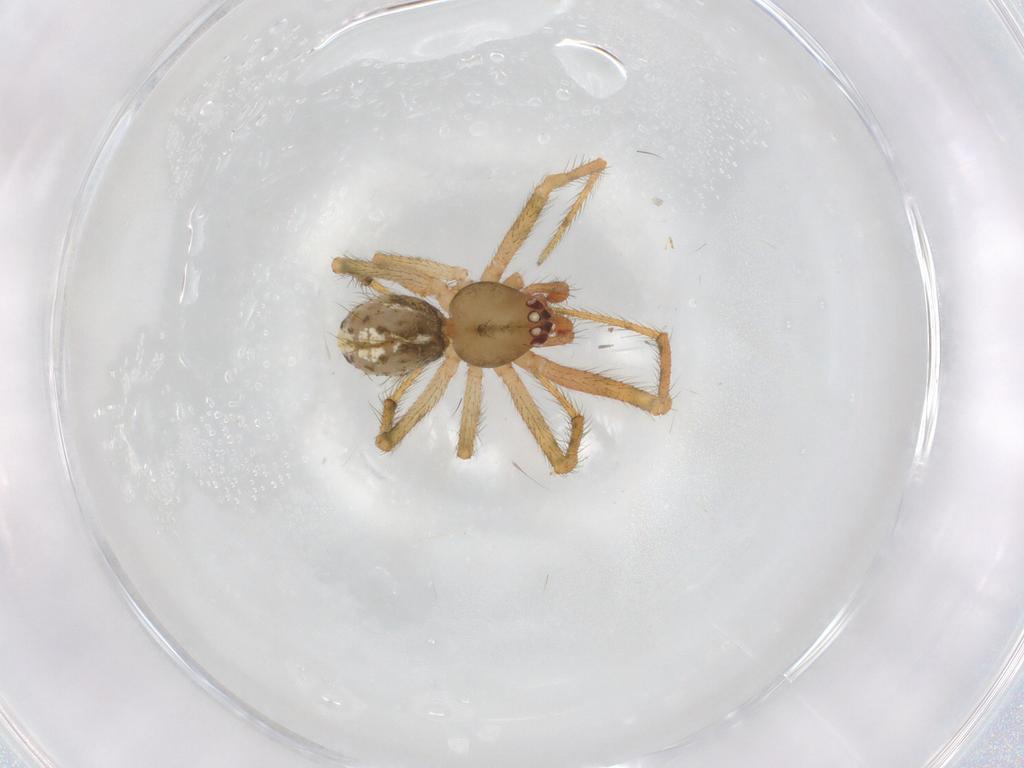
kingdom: Animalia
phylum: Arthropoda
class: Arachnida
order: Araneae
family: Theridiidae
